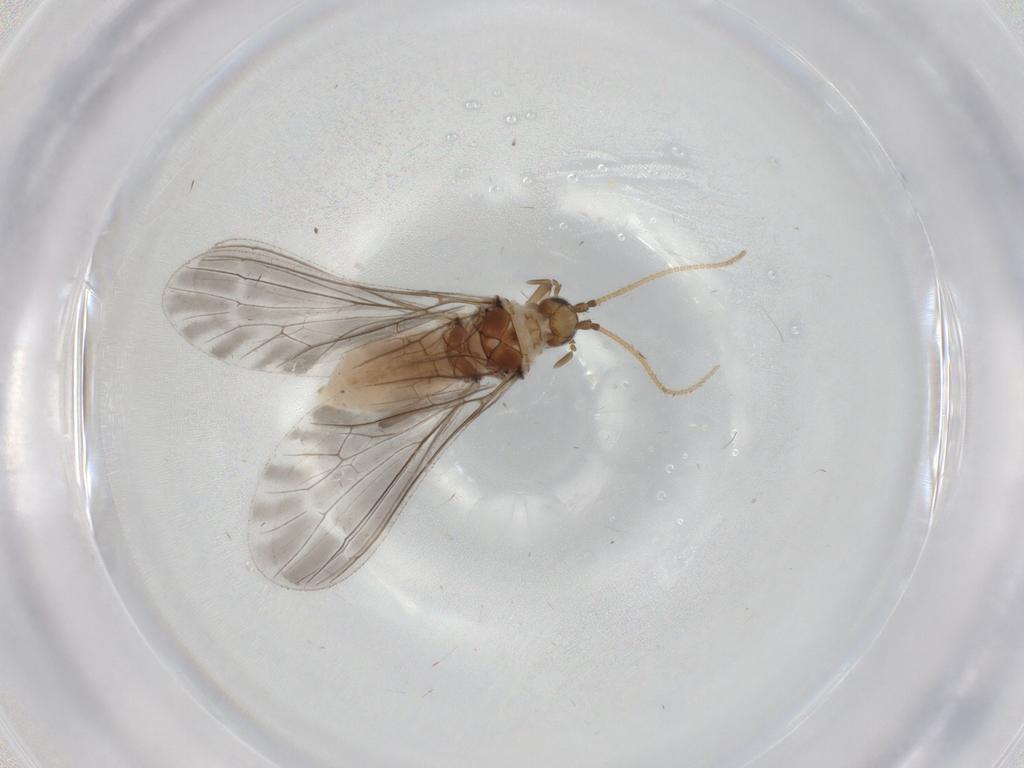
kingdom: Animalia
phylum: Arthropoda
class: Insecta
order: Neuroptera
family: Coniopterygidae
